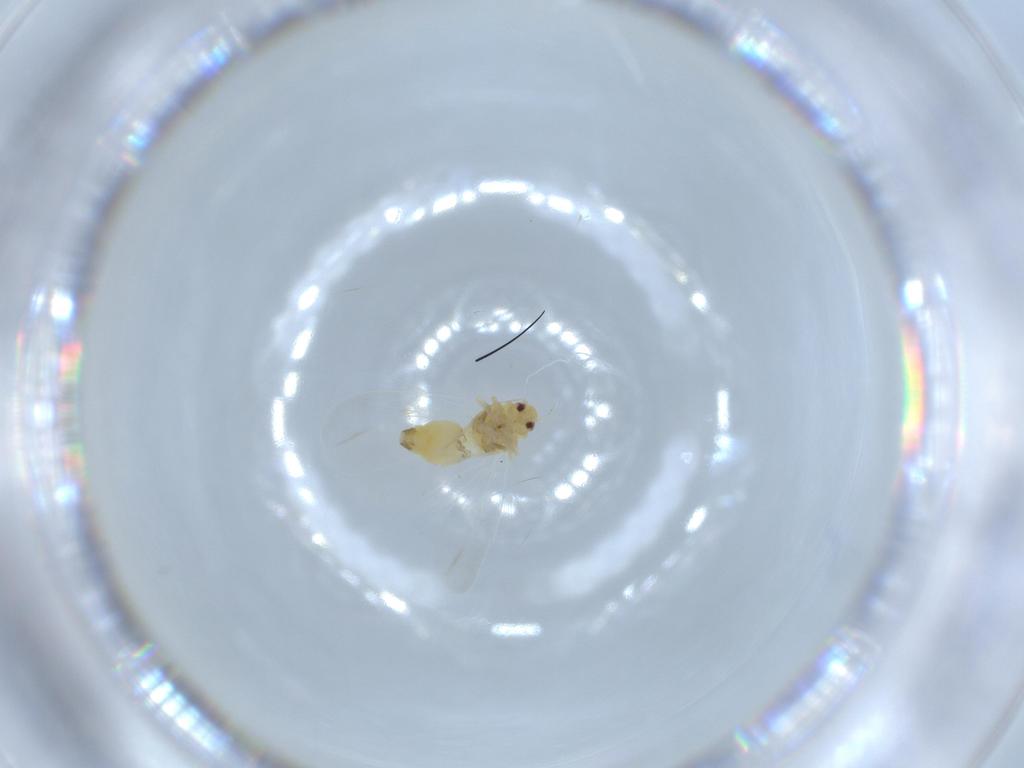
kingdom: Animalia
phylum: Arthropoda
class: Insecta
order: Hemiptera
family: Aleyrodidae
